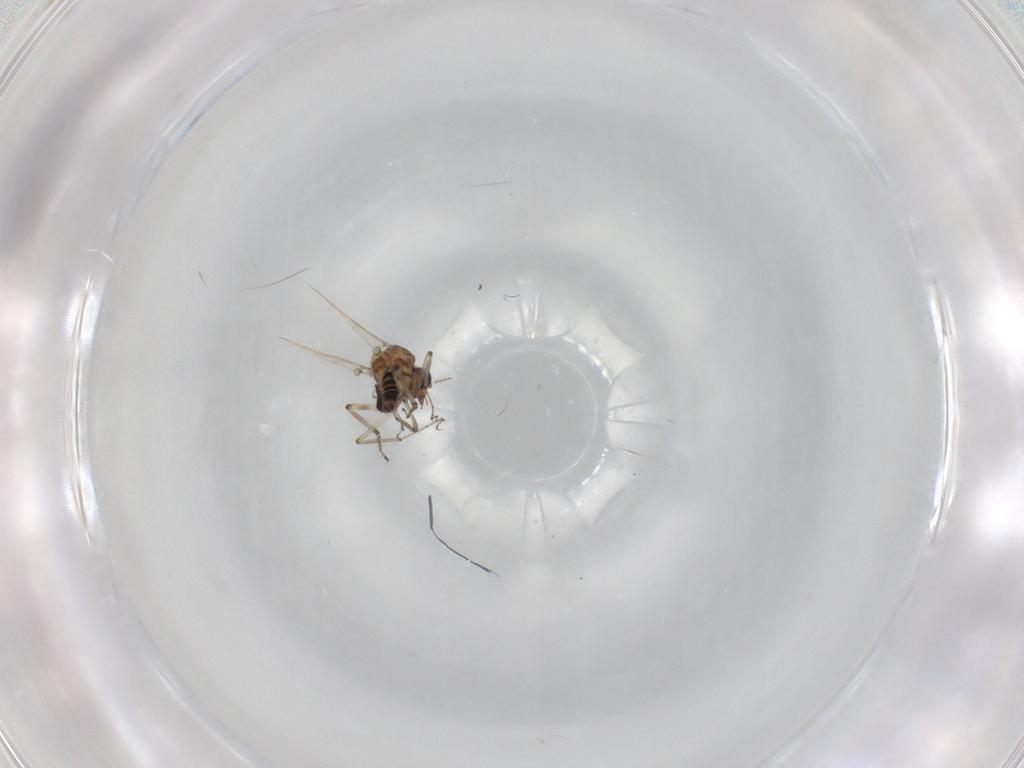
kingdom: Animalia
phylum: Arthropoda
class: Insecta
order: Diptera
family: Ceratopogonidae
